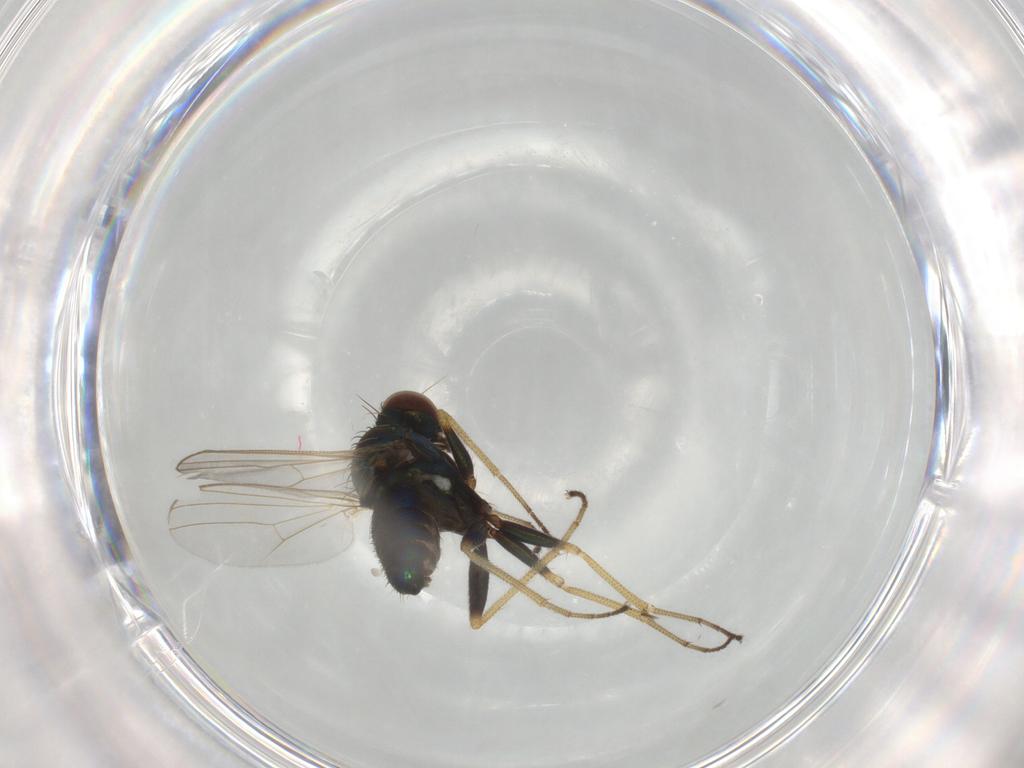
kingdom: Animalia
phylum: Arthropoda
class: Insecta
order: Diptera
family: Dolichopodidae
